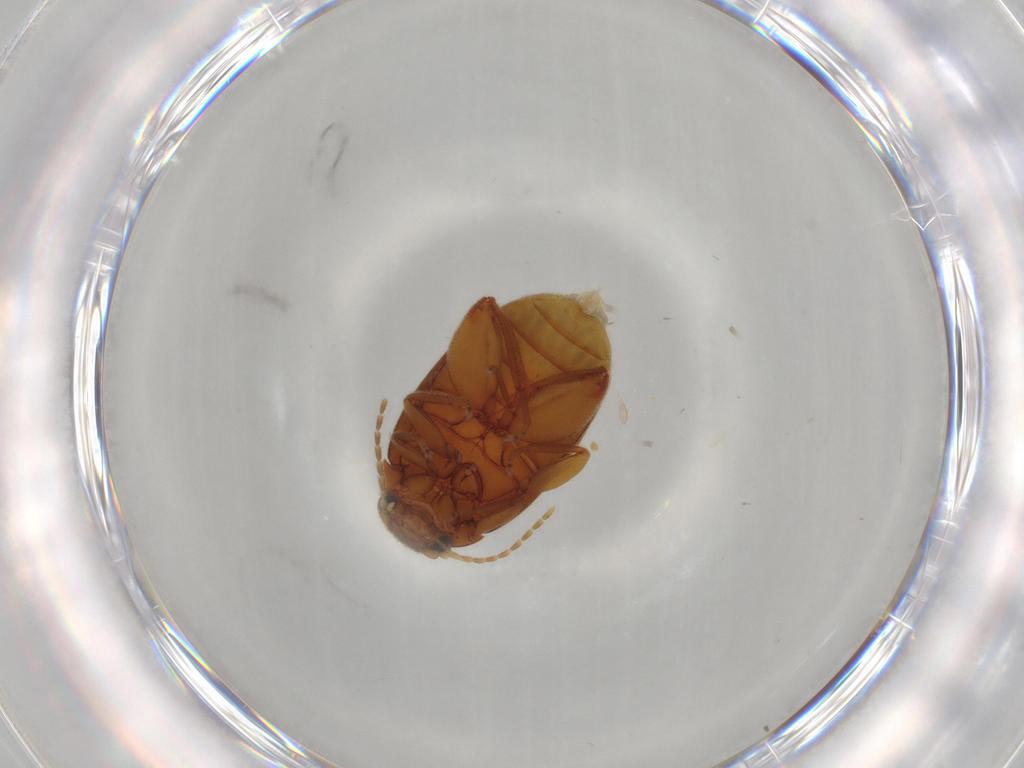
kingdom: Animalia
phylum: Arthropoda
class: Insecta
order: Coleoptera
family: Scirtidae
